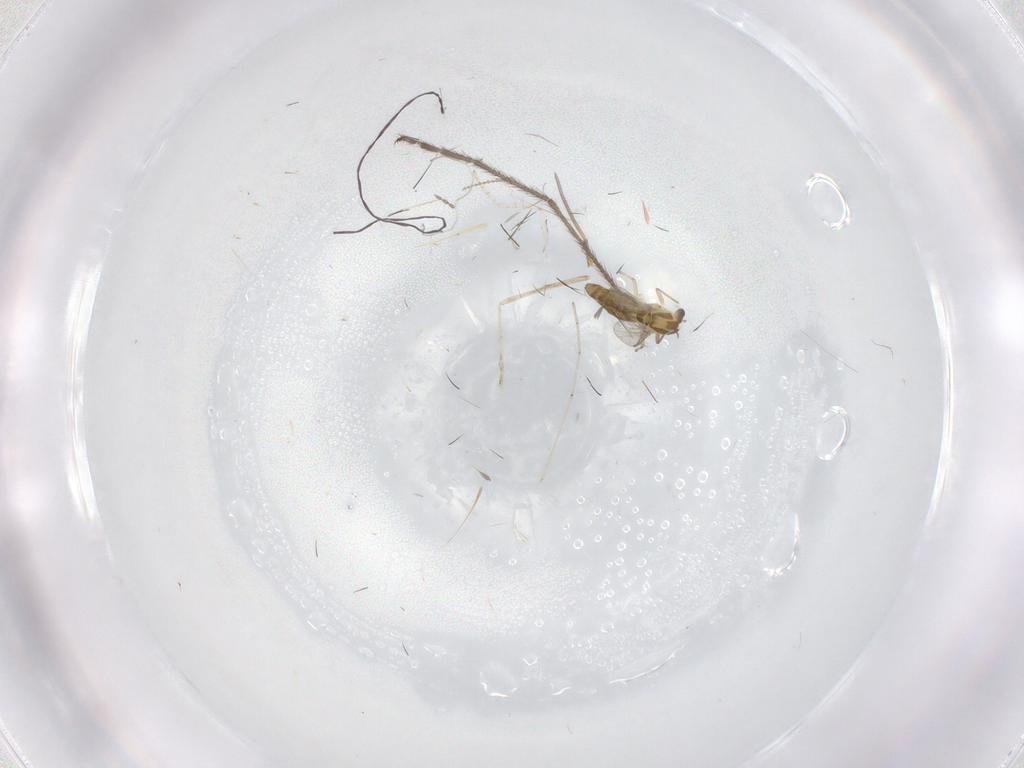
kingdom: Animalia
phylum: Arthropoda
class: Insecta
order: Diptera
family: Chironomidae
